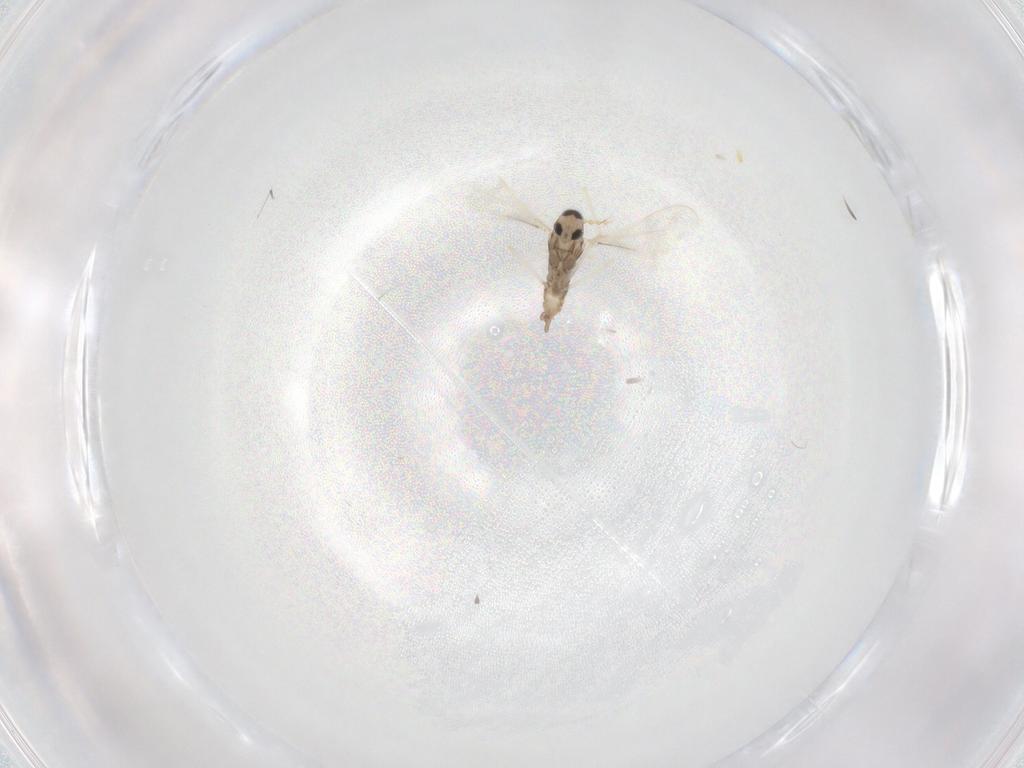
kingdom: Animalia
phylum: Arthropoda
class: Insecta
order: Diptera
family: Cecidomyiidae
